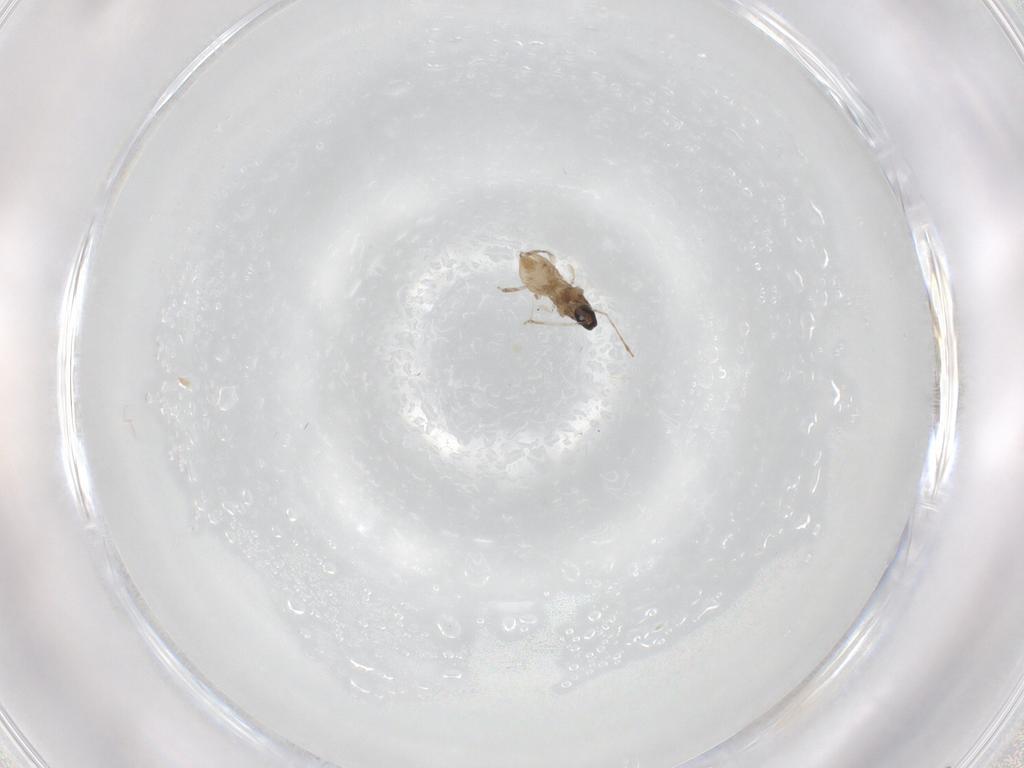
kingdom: Animalia
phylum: Arthropoda
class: Insecta
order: Diptera
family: Cecidomyiidae
